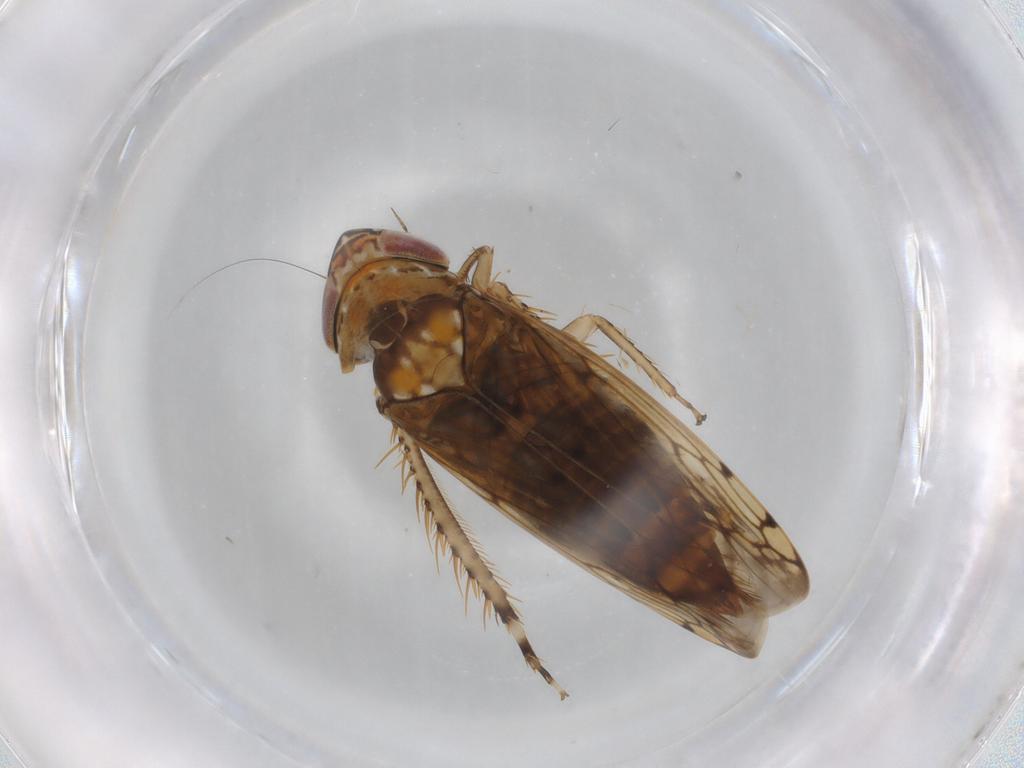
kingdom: Animalia
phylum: Arthropoda
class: Insecta
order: Hemiptera
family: Cicadellidae
